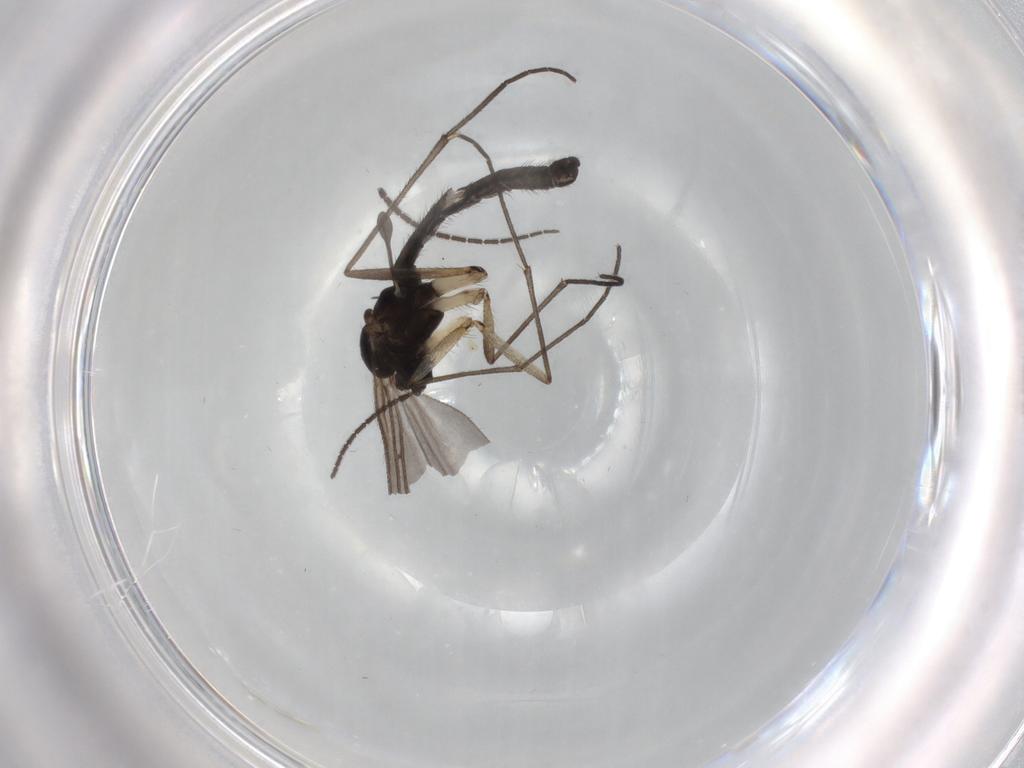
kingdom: Animalia
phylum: Arthropoda
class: Insecta
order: Diptera
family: Sciaridae
